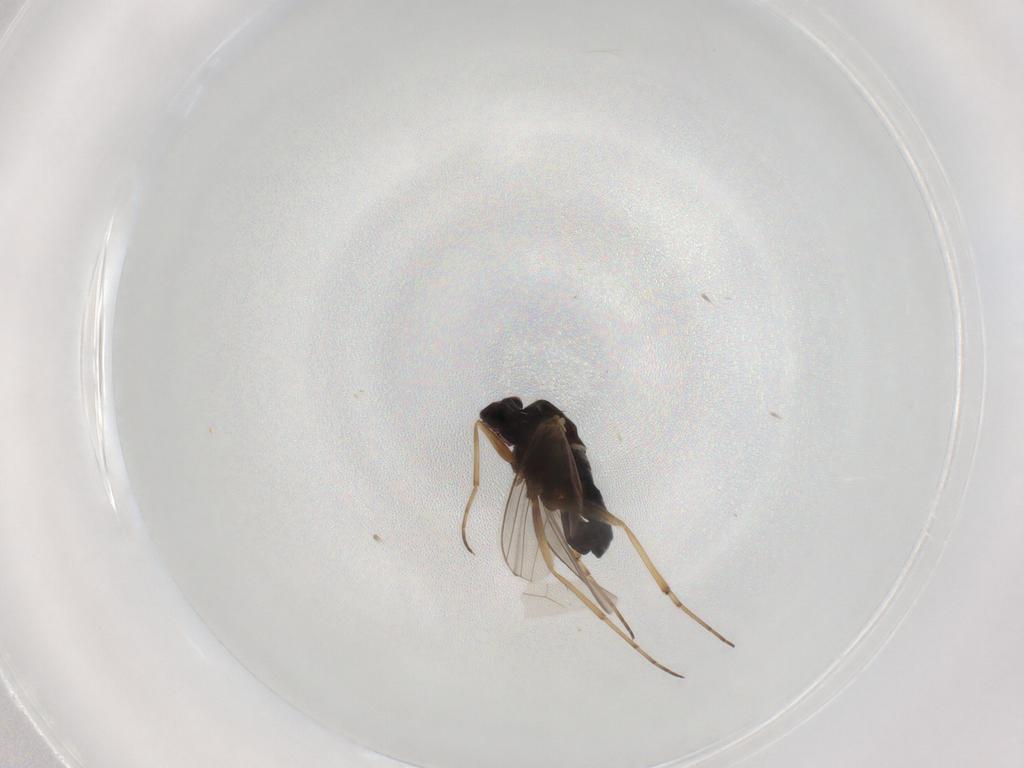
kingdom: Animalia
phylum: Arthropoda
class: Insecta
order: Diptera
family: Dolichopodidae
